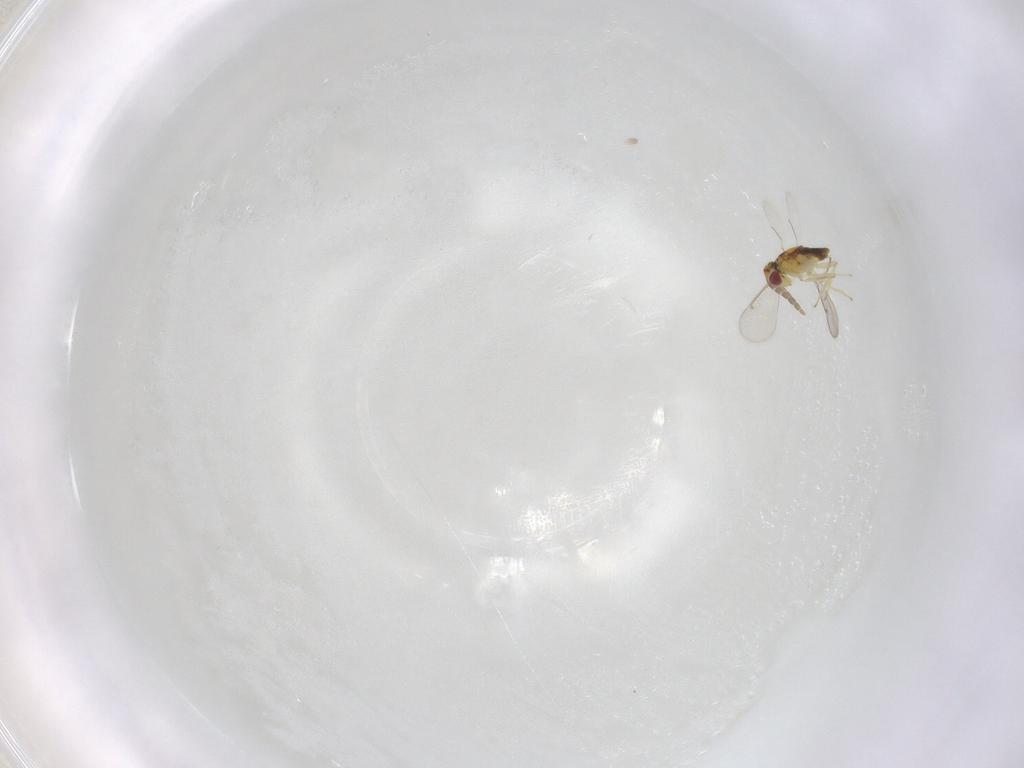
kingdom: Animalia
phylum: Arthropoda
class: Insecta
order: Hymenoptera
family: Aphelinidae
